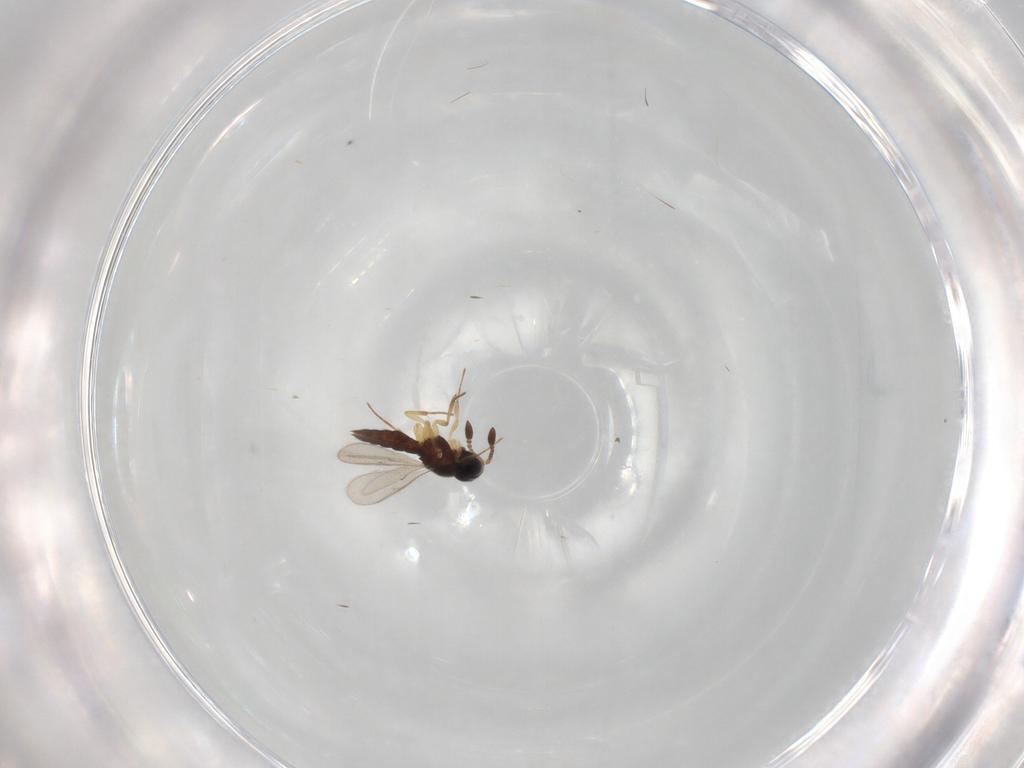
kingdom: Animalia
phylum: Arthropoda
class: Insecta
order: Hymenoptera
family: Scelionidae
